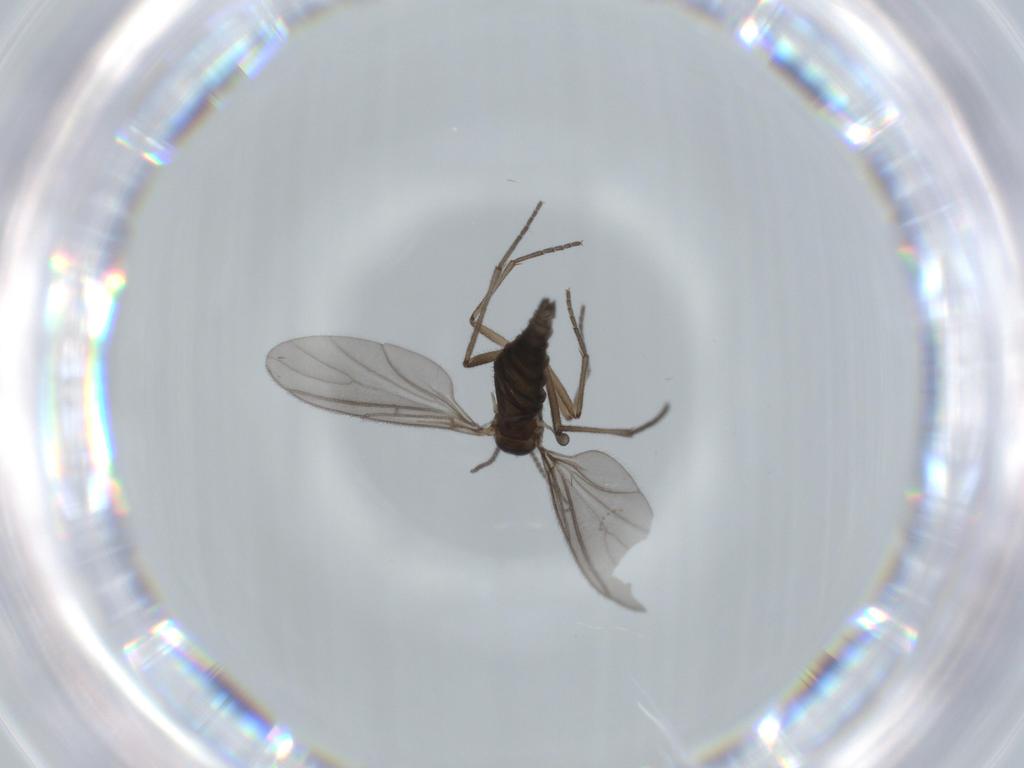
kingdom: Animalia
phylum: Arthropoda
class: Insecta
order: Diptera
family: Sciaridae
